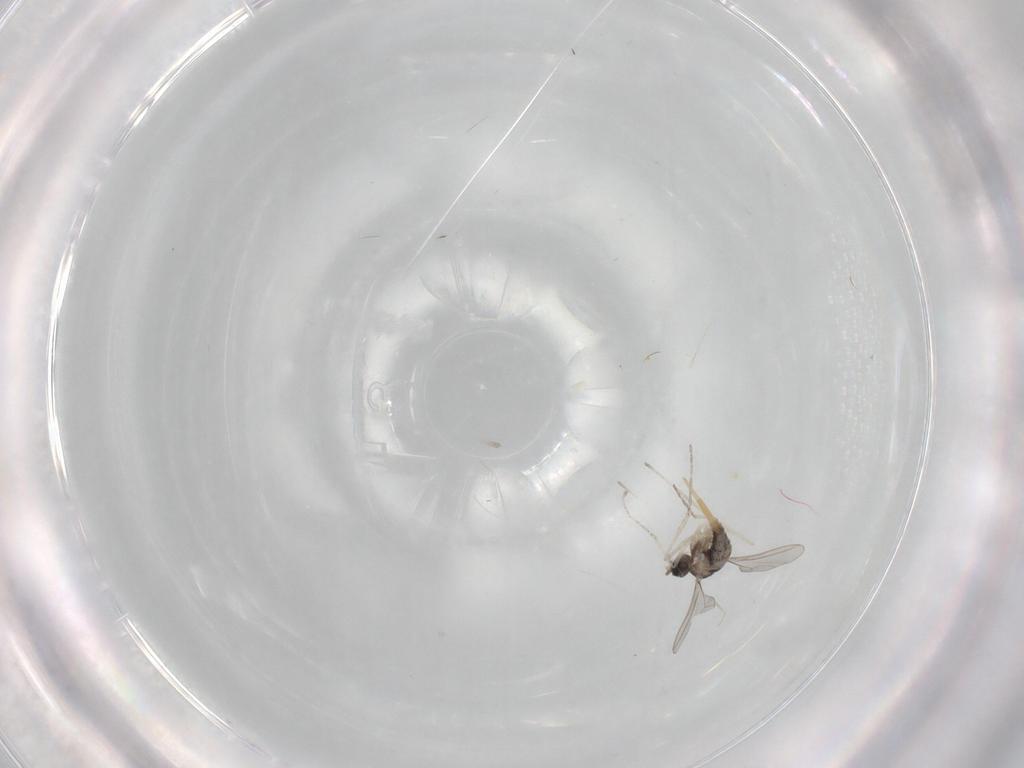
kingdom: Animalia
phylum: Arthropoda
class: Insecta
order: Diptera
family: Cecidomyiidae
